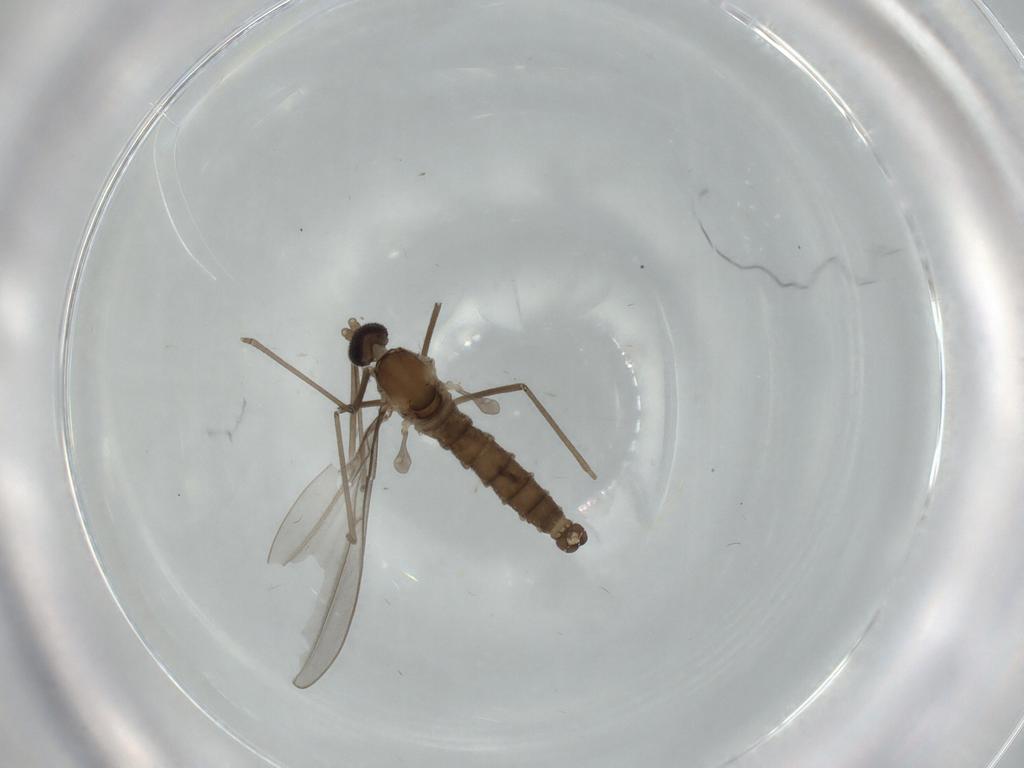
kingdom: Animalia
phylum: Arthropoda
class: Insecta
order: Diptera
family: Cecidomyiidae
